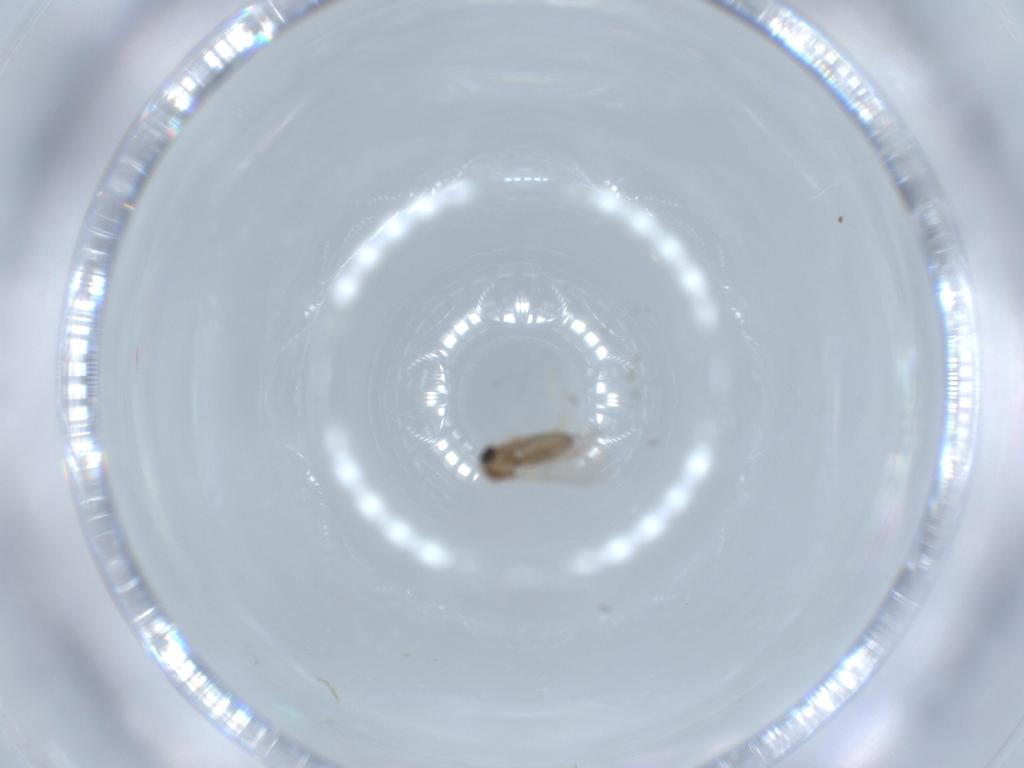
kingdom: Animalia
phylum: Arthropoda
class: Insecta
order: Diptera
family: Cecidomyiidae
